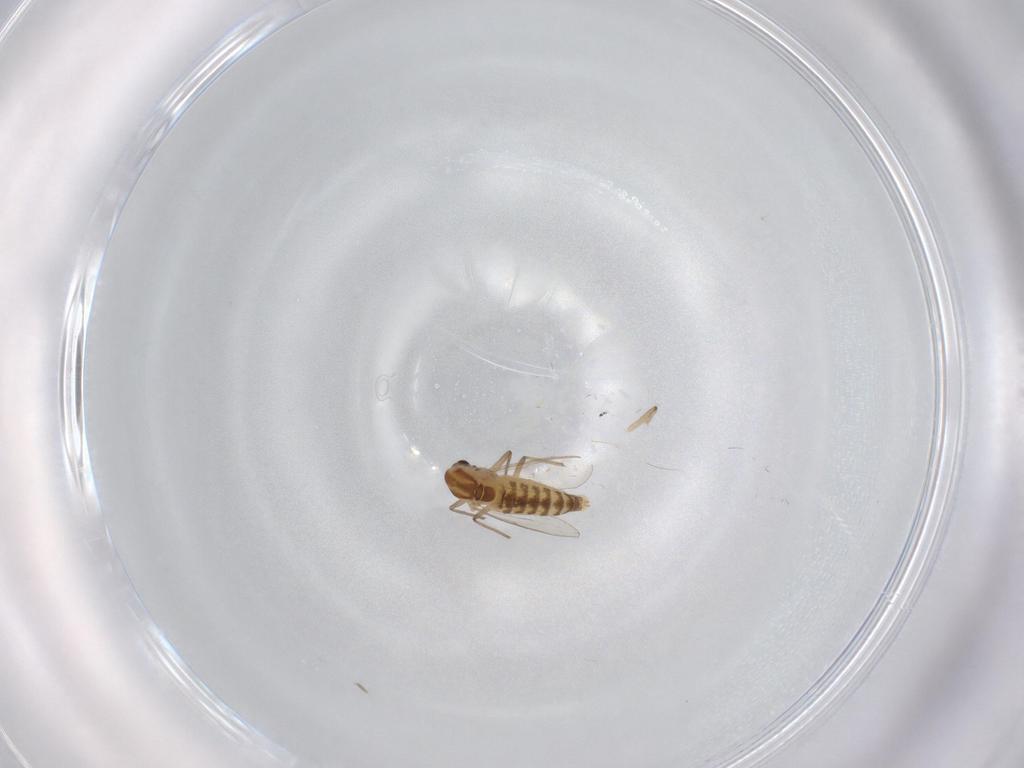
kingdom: Animalia
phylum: Arthropoda
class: Insecta
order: Diptera
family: Chironomidae
